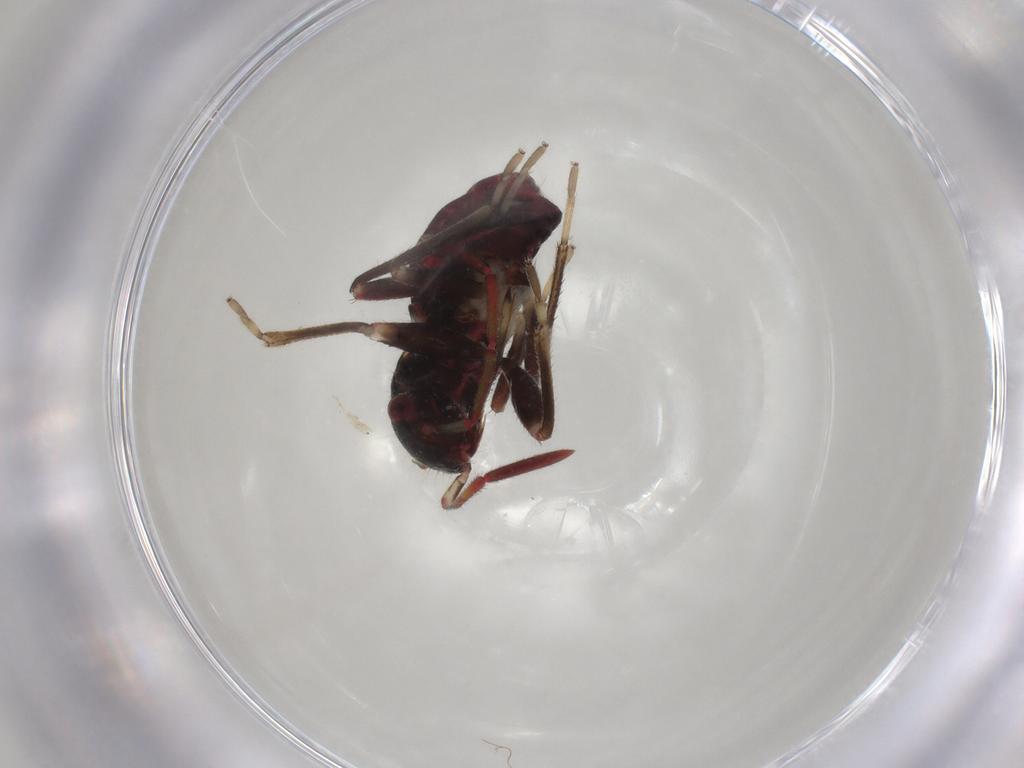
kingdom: Animalia
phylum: Arthropoda
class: Insecta
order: Hemiptera
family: Rhyparochromidae
